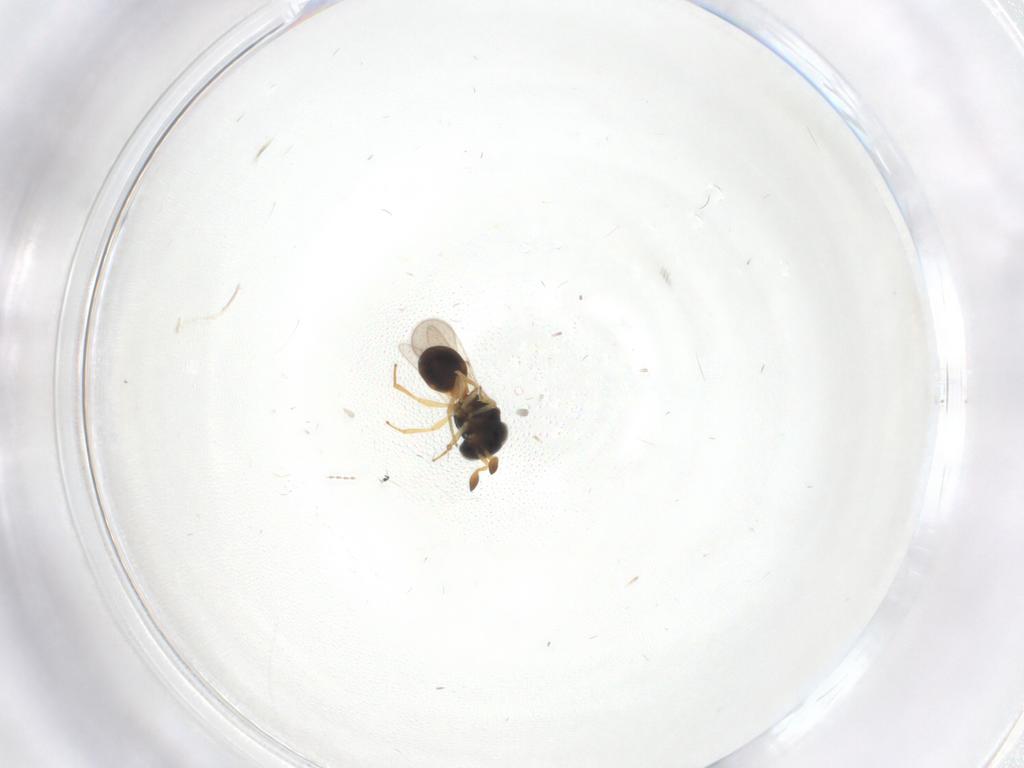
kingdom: Animalia
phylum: Arthropoda
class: Insecta
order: Hymenoptera
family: Scelionidae
